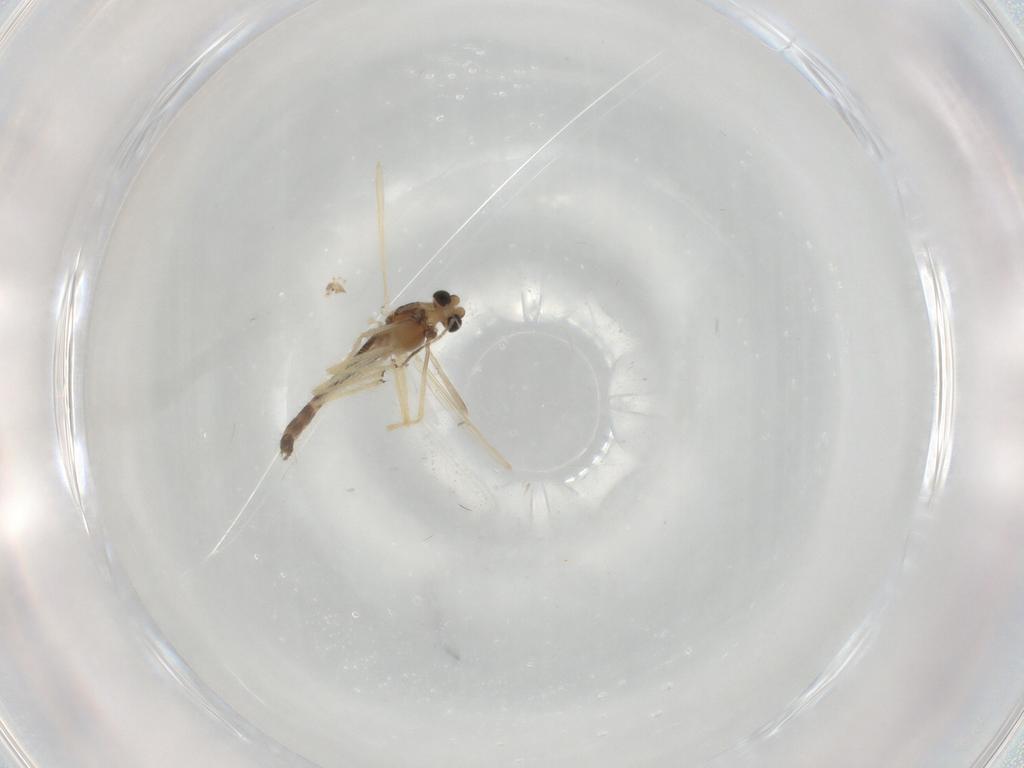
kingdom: Animalia
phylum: Arthropoda
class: Insecta
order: Diptera
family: Chironomidae
